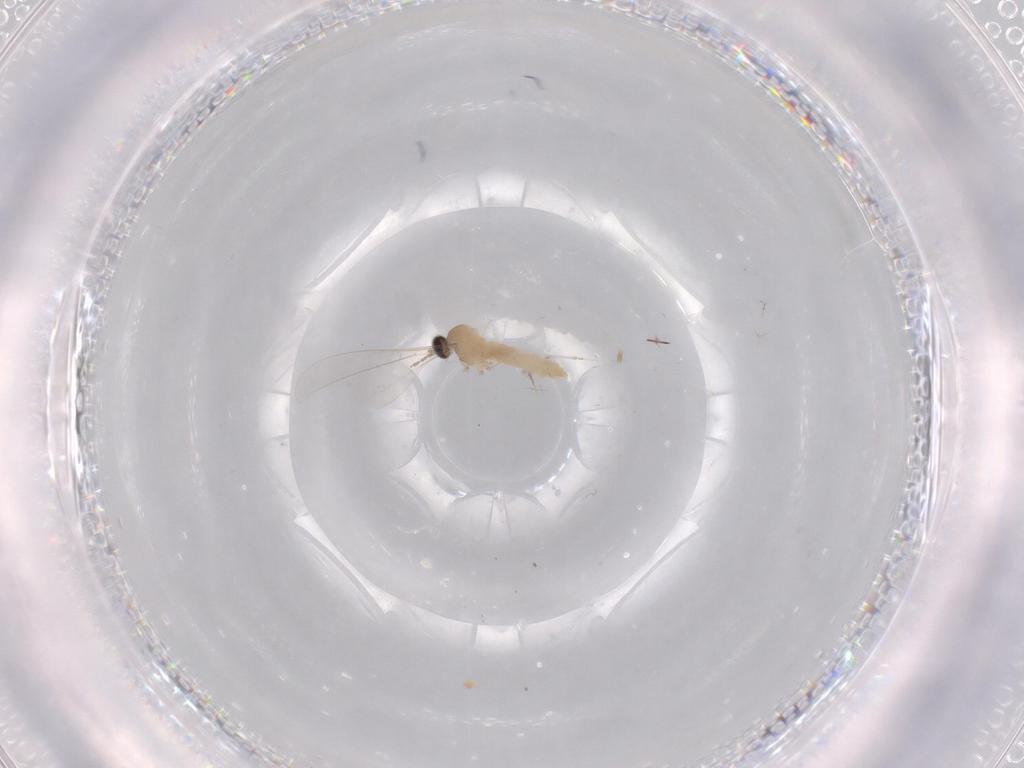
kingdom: Animalia
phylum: Arthropoda
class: Insecta
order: Diptera
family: Chironomidae
